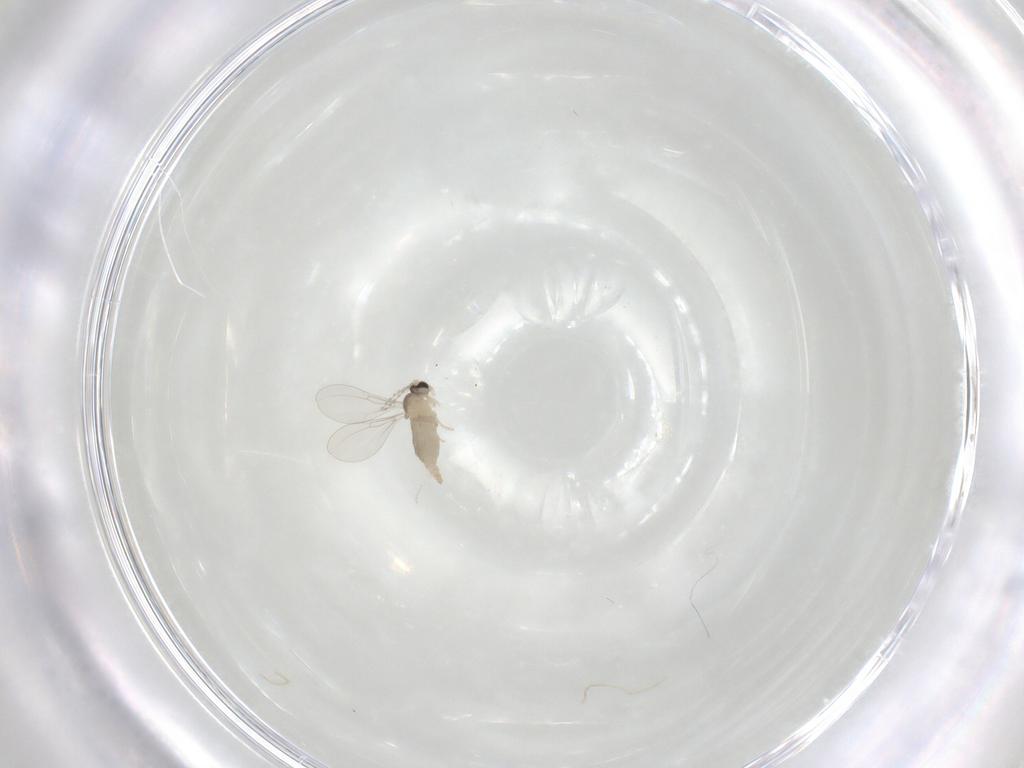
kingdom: Animalia
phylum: Arthropoda
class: Insecta
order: Diptera
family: Cecidomyiidae
